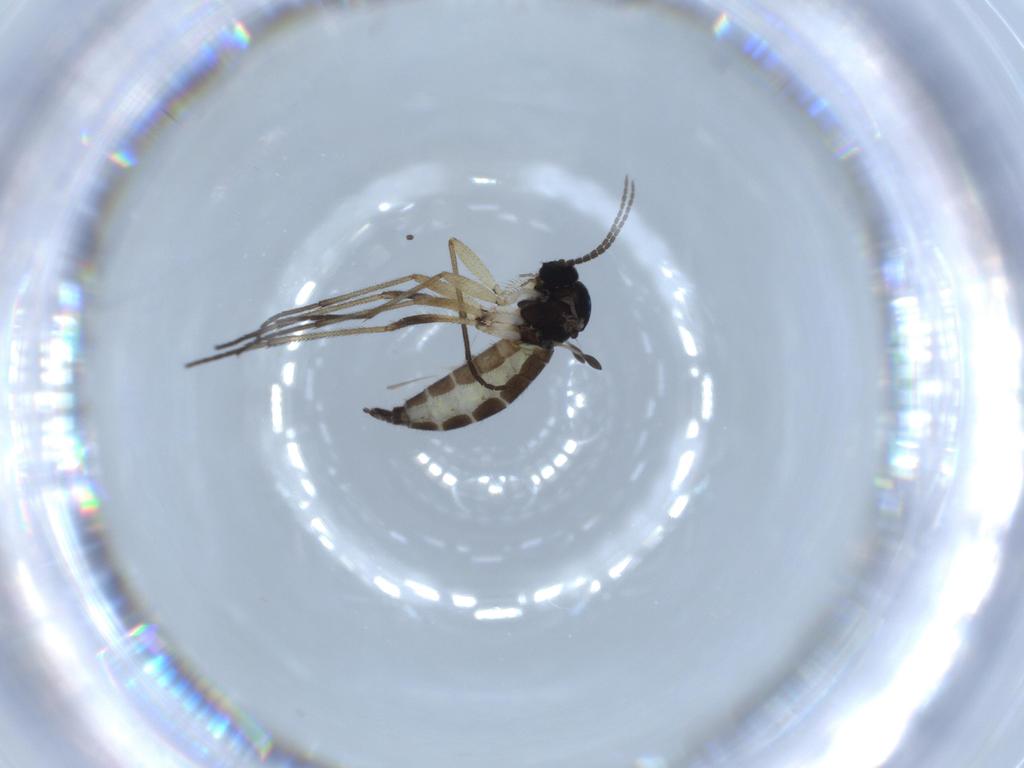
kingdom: Animalia
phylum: Arthropoda
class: Insecta
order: Diptera
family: Sciaridae
